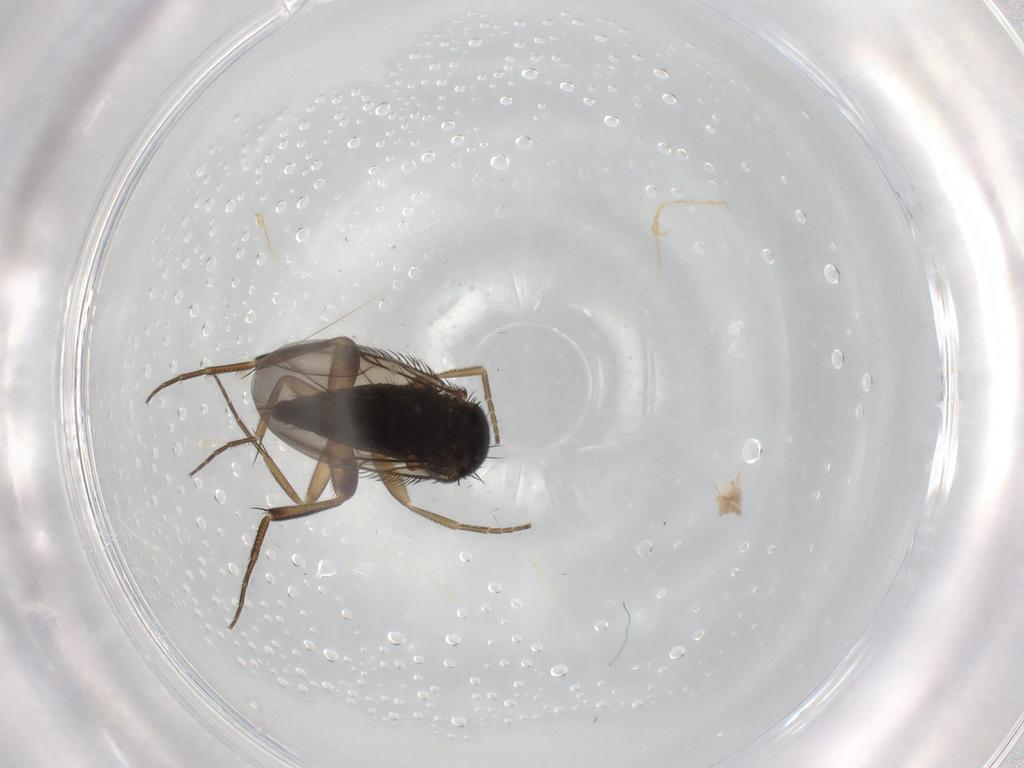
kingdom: Animalia
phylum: Arthropoda
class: Insecta
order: Diptera
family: Phoridae
